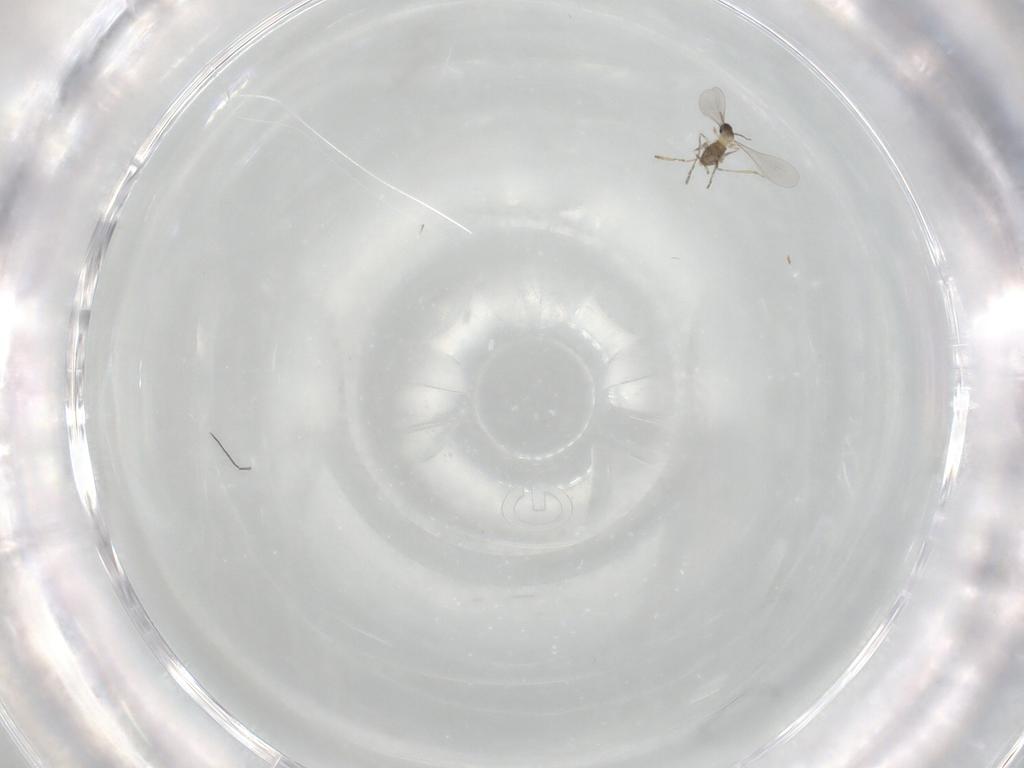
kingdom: Animalia
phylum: Arthropoda
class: Insecta
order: Diptera
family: Cecidomyiidae
